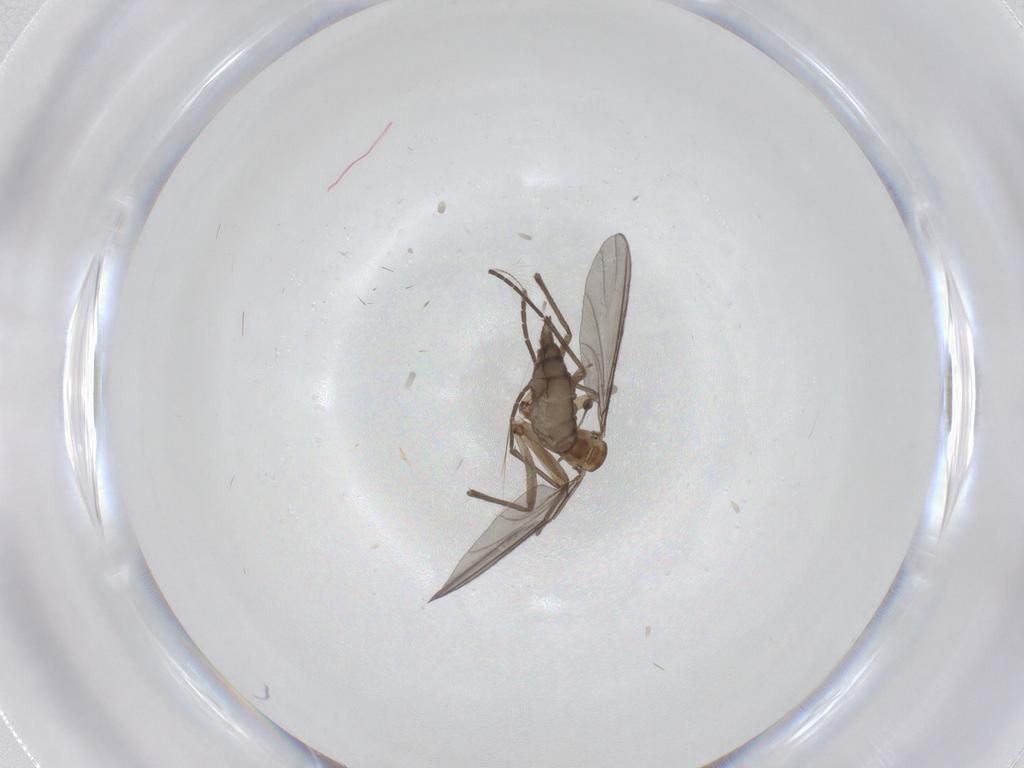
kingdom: Animalia
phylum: Arthropoda
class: Insecta
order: Diptera
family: Sciaridae
